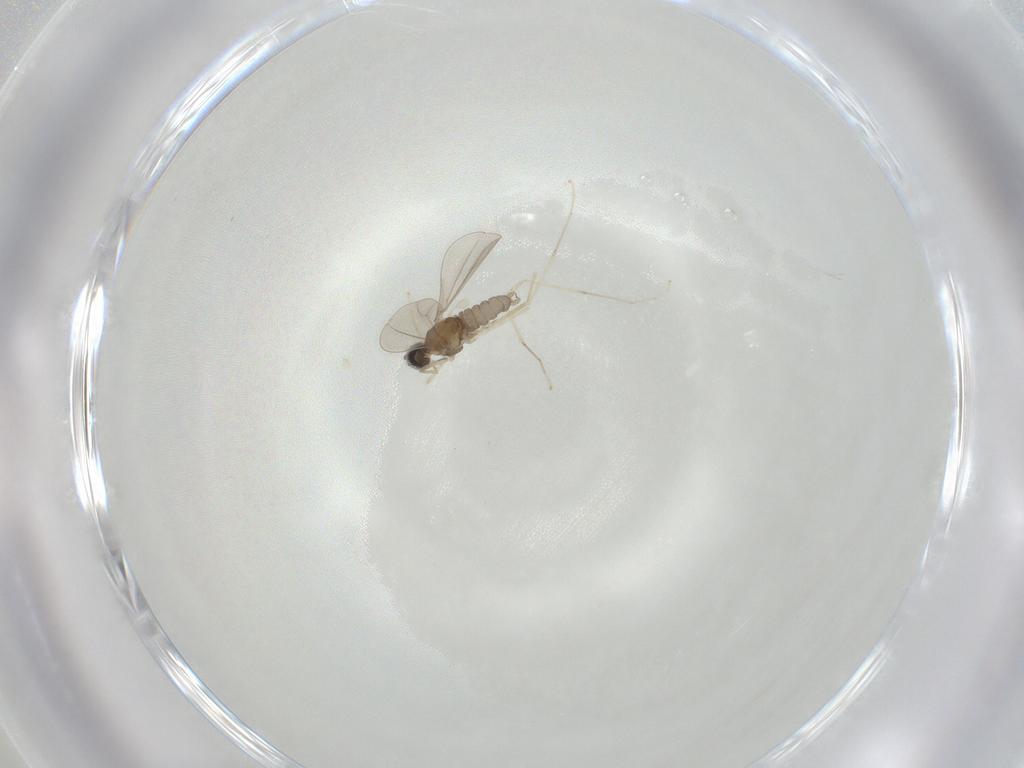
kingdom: Animalia
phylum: Arthropoda
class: Insecta
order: Diptera
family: Cecidomyiidae
